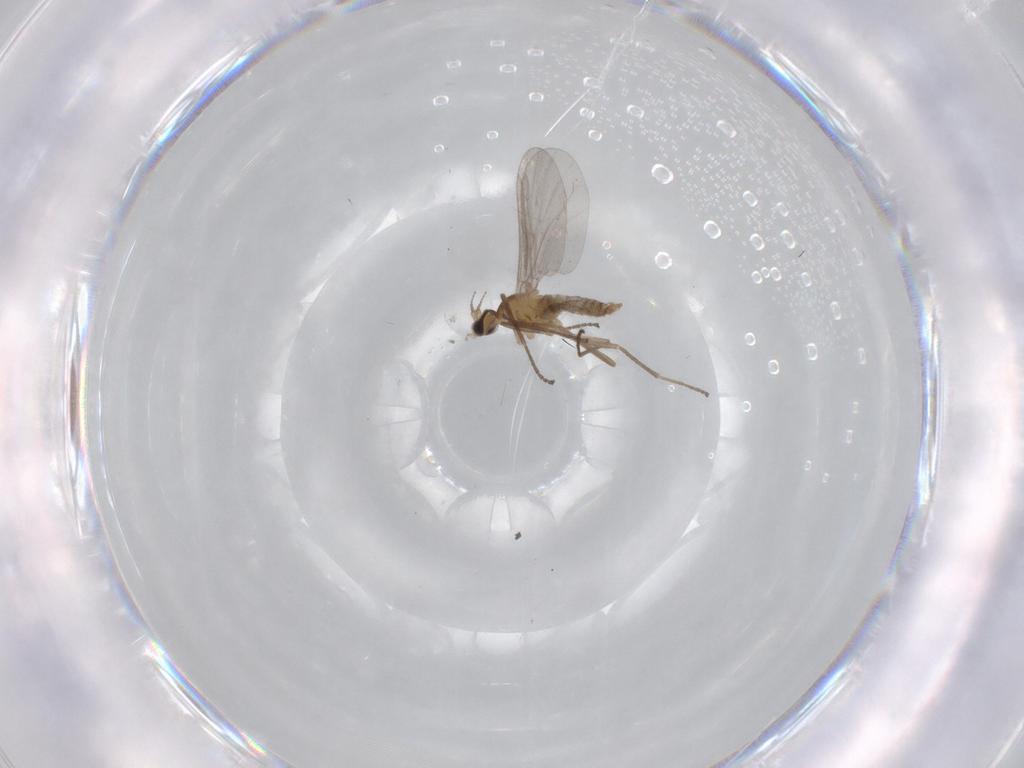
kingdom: Animalia
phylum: Arthropoda
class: Insecta
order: Diptera
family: Cecidomyiidae
